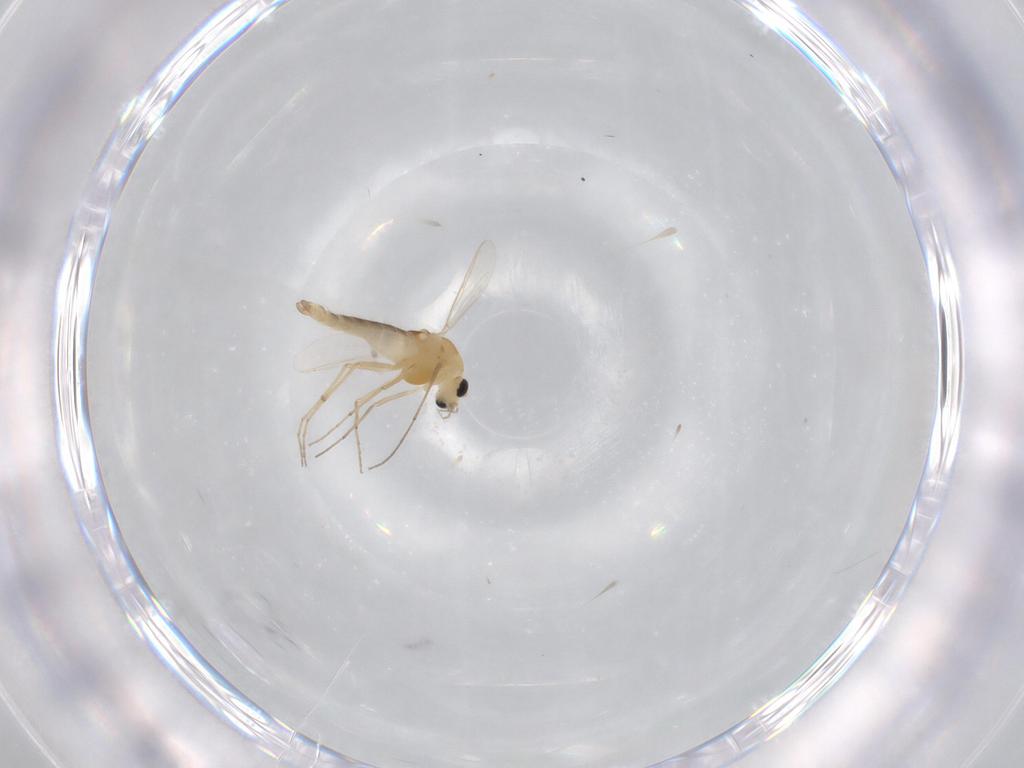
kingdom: Animalia
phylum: Arthropoda
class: Insecta
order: Diptera
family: Chironomidae
